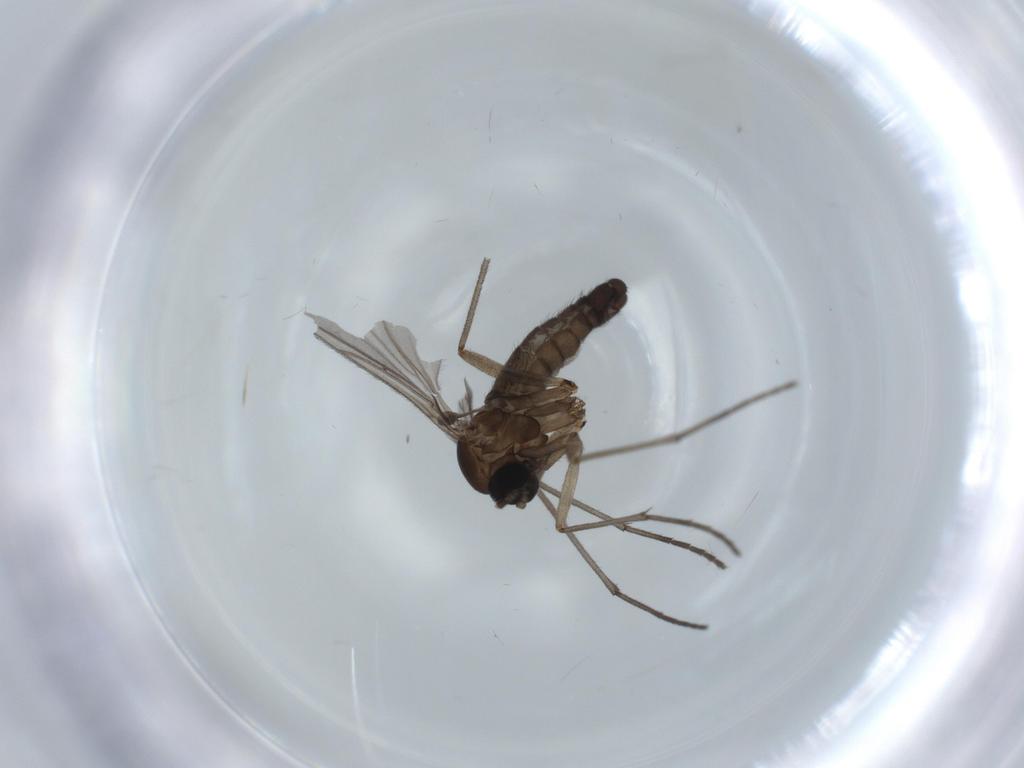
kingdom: Animalia
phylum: Arthropoda
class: Insecta
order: Diptera
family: Sciaridae
